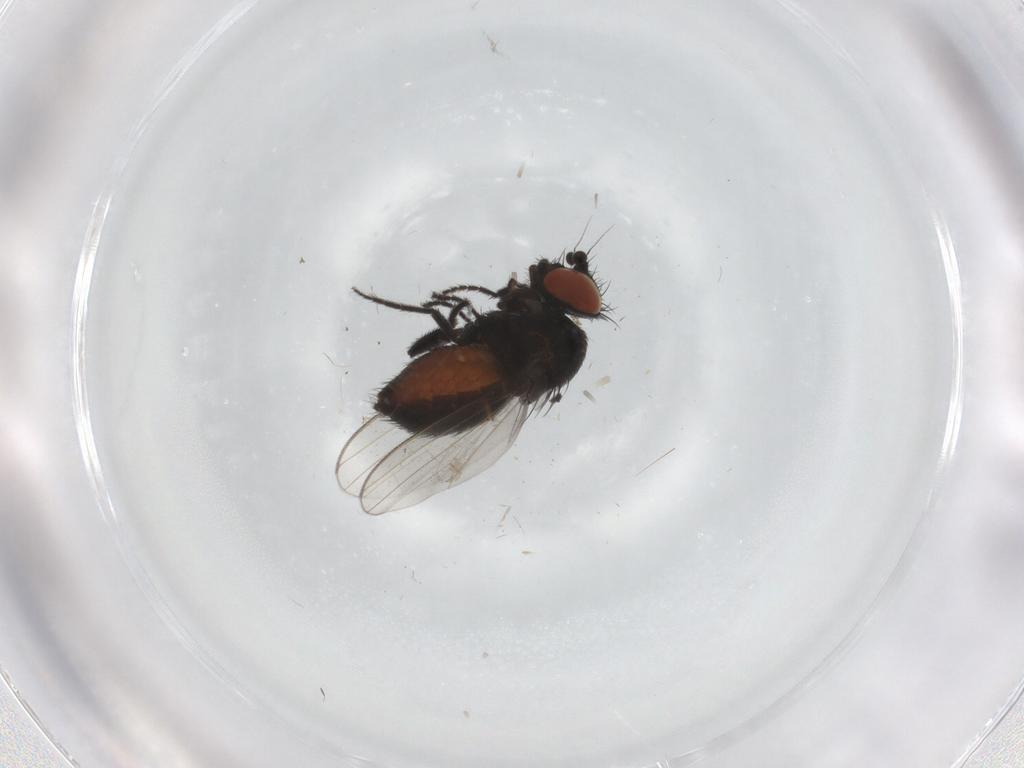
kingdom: Animalia
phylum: Arthropoda
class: Insecta
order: Diptera
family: Milichiidae
